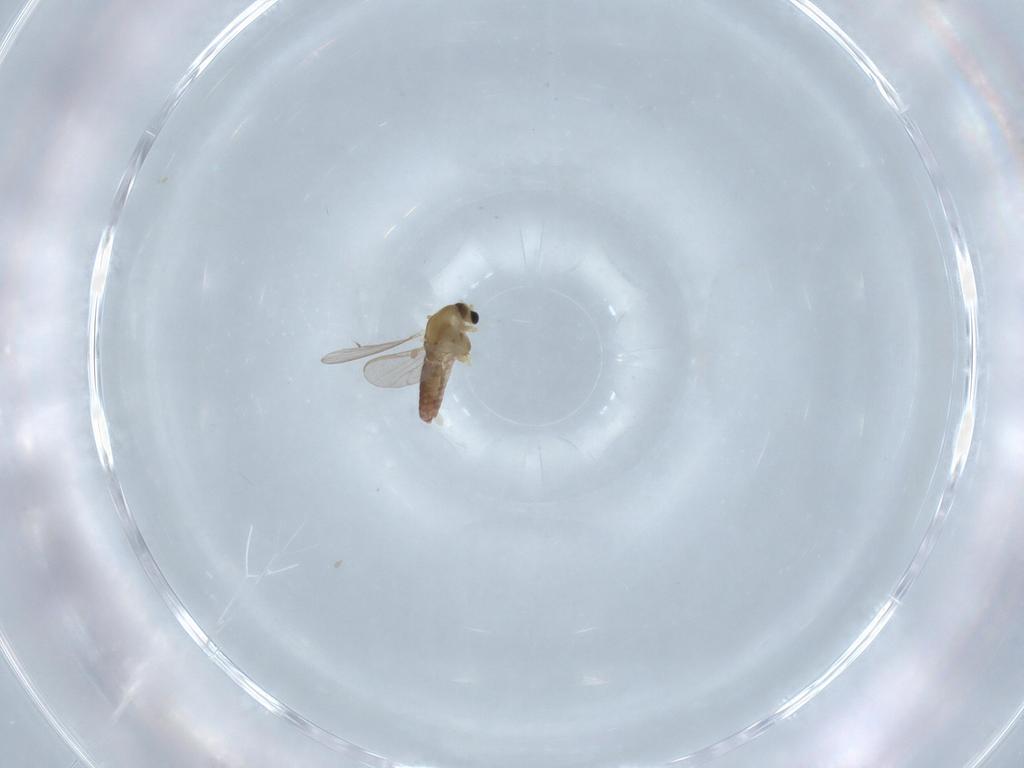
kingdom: Animalia
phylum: Arthropoda
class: Insecta
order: Diptera
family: Chironomidae
